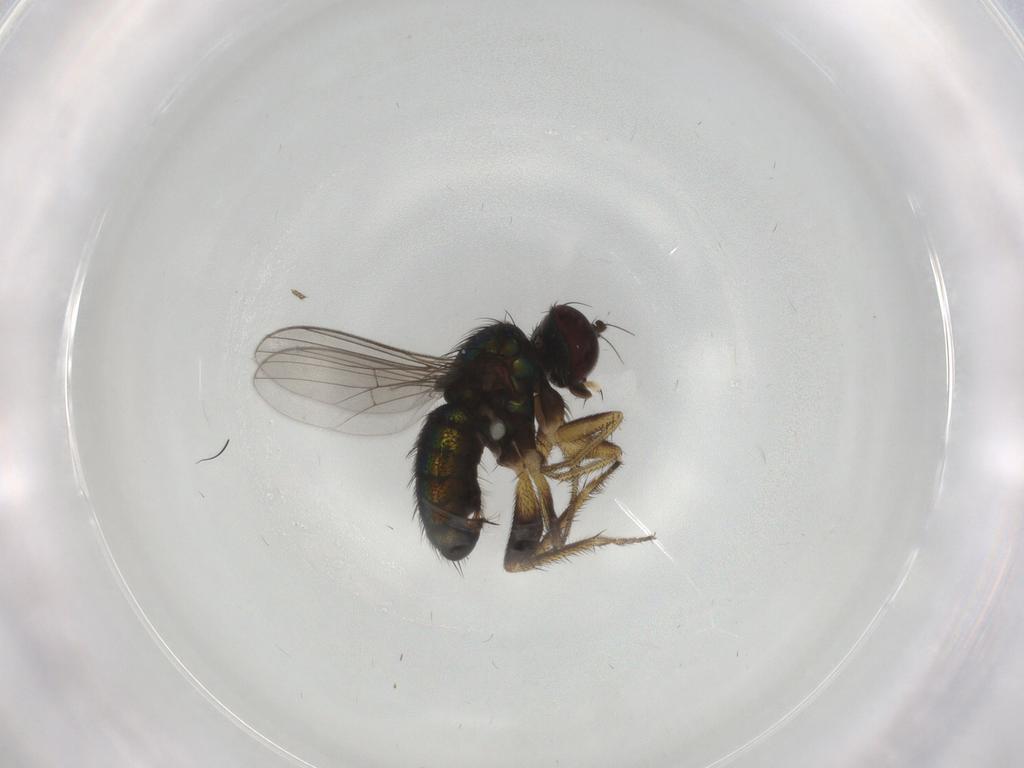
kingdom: Animalia
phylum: Arthropoda
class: Insecta
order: Diptera
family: Dolichopodidae
